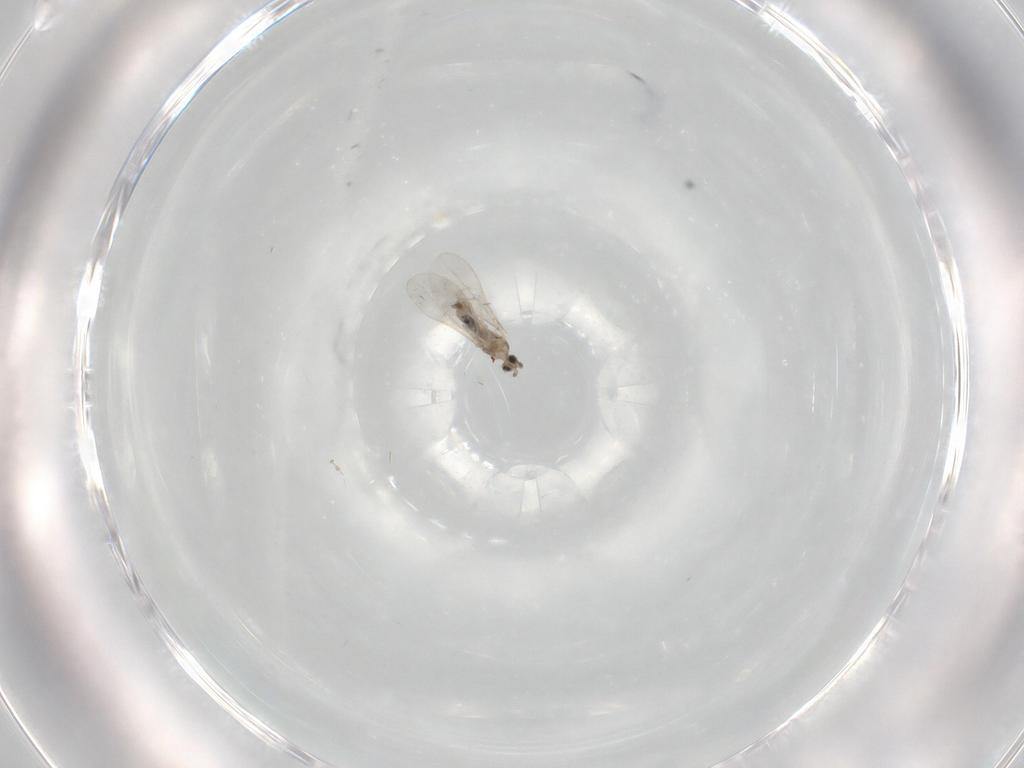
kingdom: Animalia
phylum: Arthropoda
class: Insecta
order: Diptera
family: Cecidomyiidae
